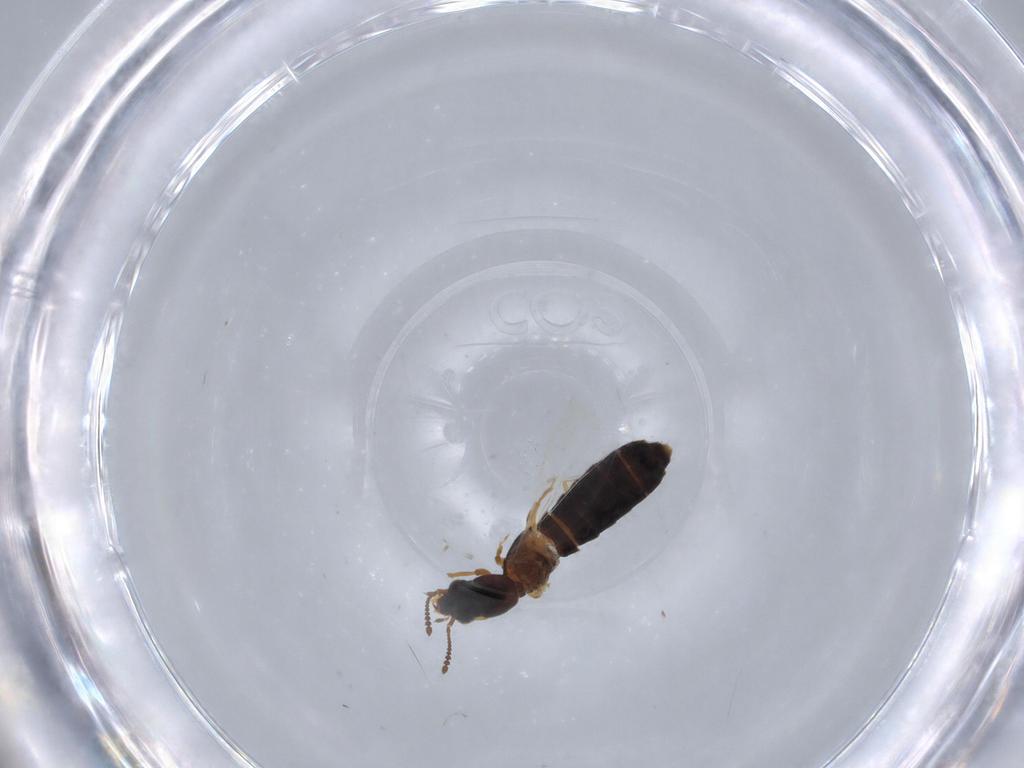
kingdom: Animalia
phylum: Arthropoda
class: Insecta
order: Coleoptera
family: Staphylinidae
